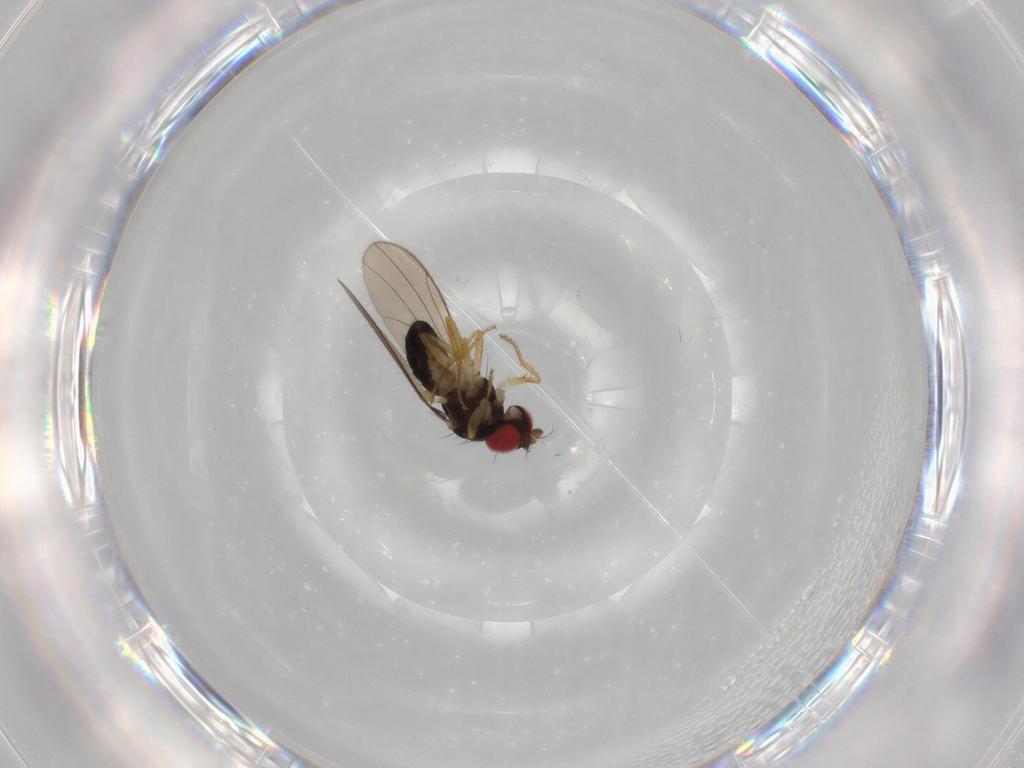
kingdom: Animalia
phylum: Arthropoda
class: Insecta
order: Diptera
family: Drosophilidae
